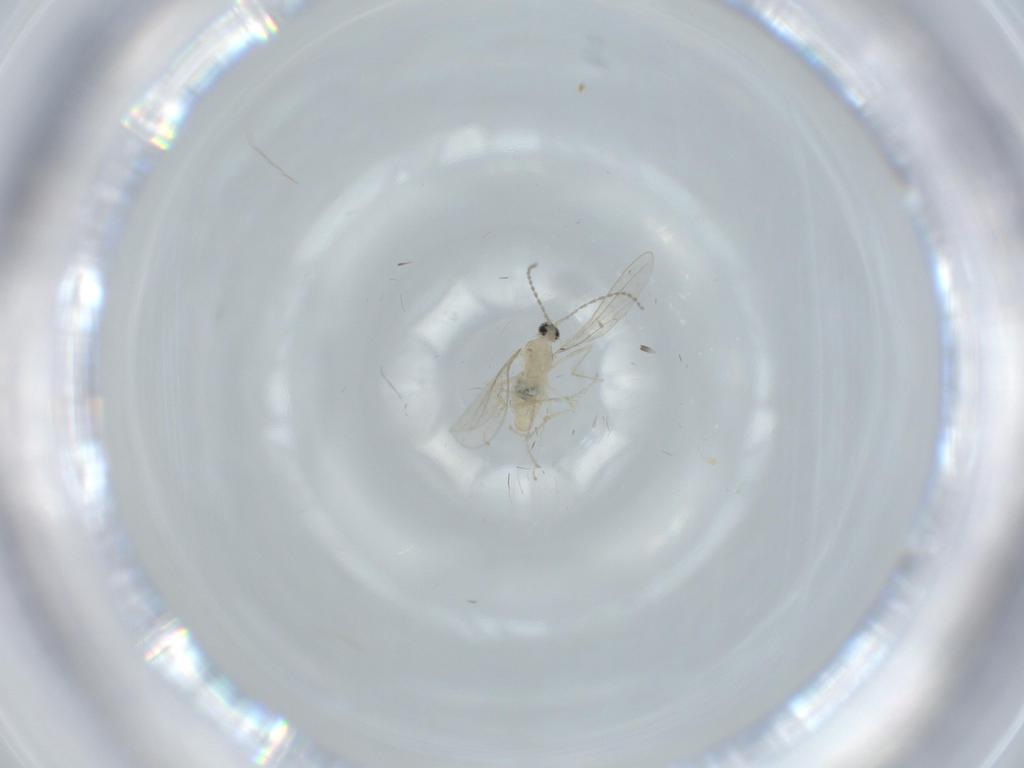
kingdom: Animalia
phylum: Arthropoda
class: Insecta
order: Diptera
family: Cecidomyiidae
